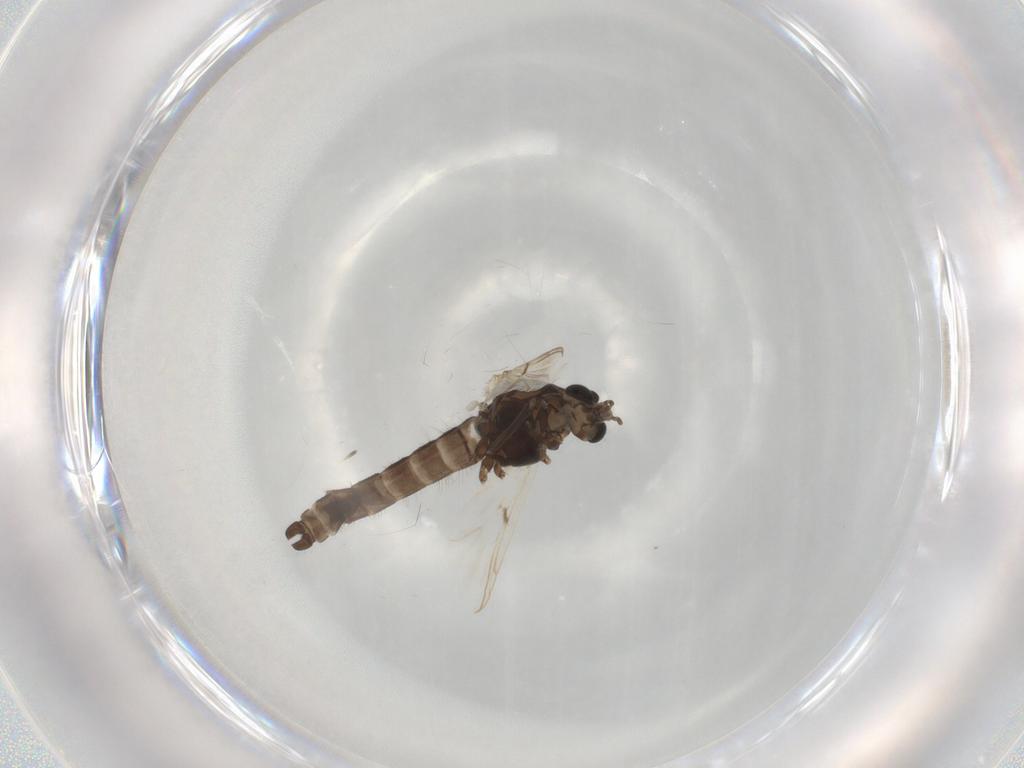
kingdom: Animalia
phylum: Arthropoda
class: Insecta
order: Diptera
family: Chironomidae
